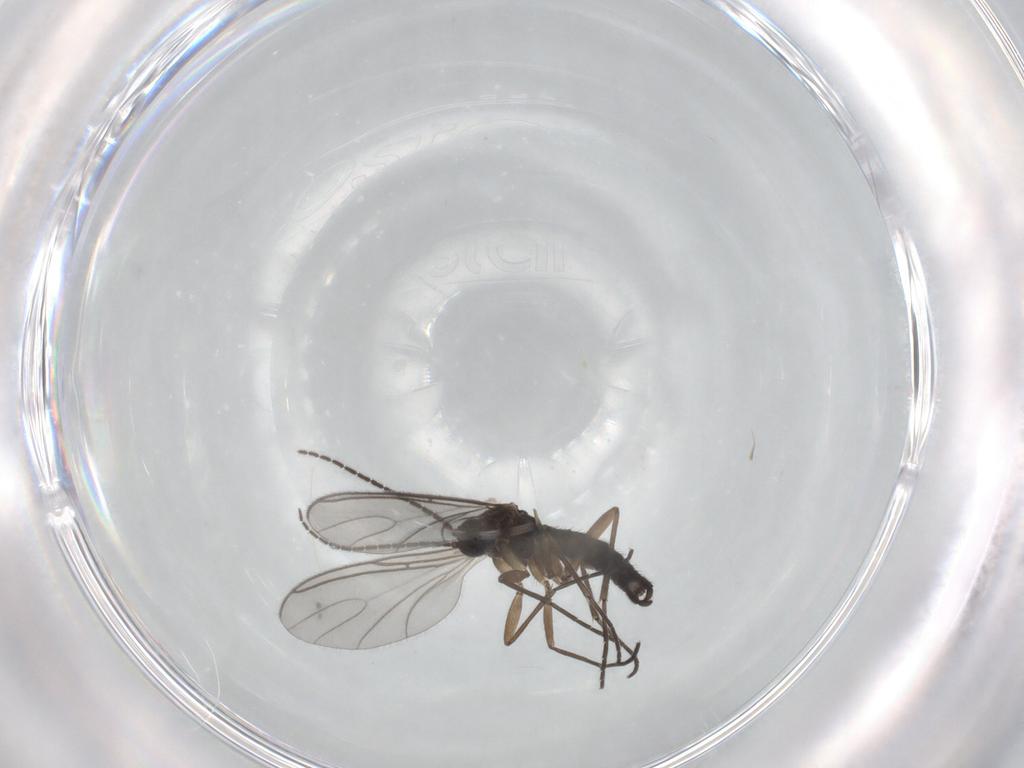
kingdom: Animalia
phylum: Arthropoda
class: Insecta
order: Diptera
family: Sciaridae
